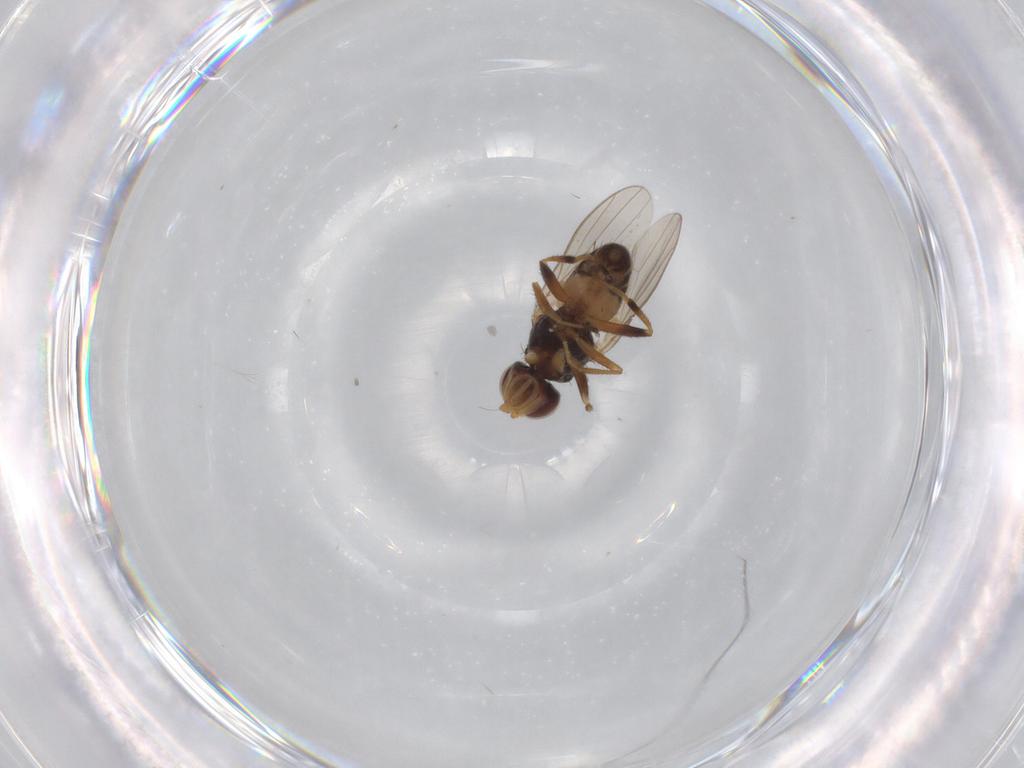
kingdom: Animalia
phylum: Arthropoda
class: Insecta
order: Diptera
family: Canacidae
